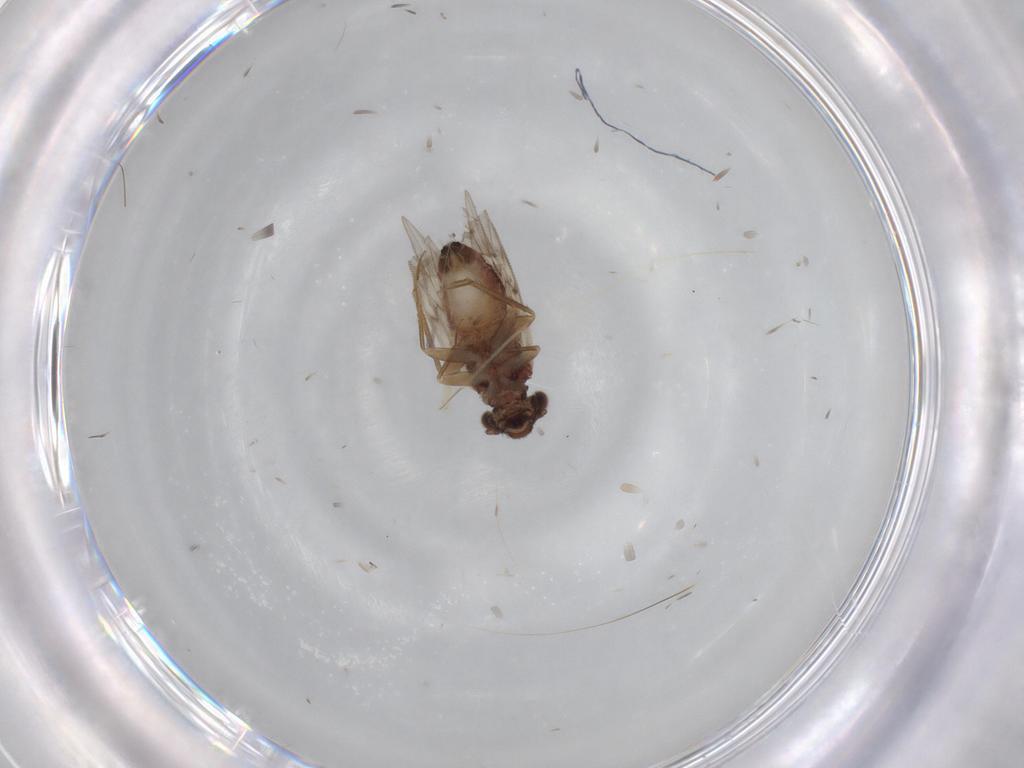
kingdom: Animalia
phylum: Arthropoda
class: Insecta
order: Psocodea
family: Lepidopsocidae
